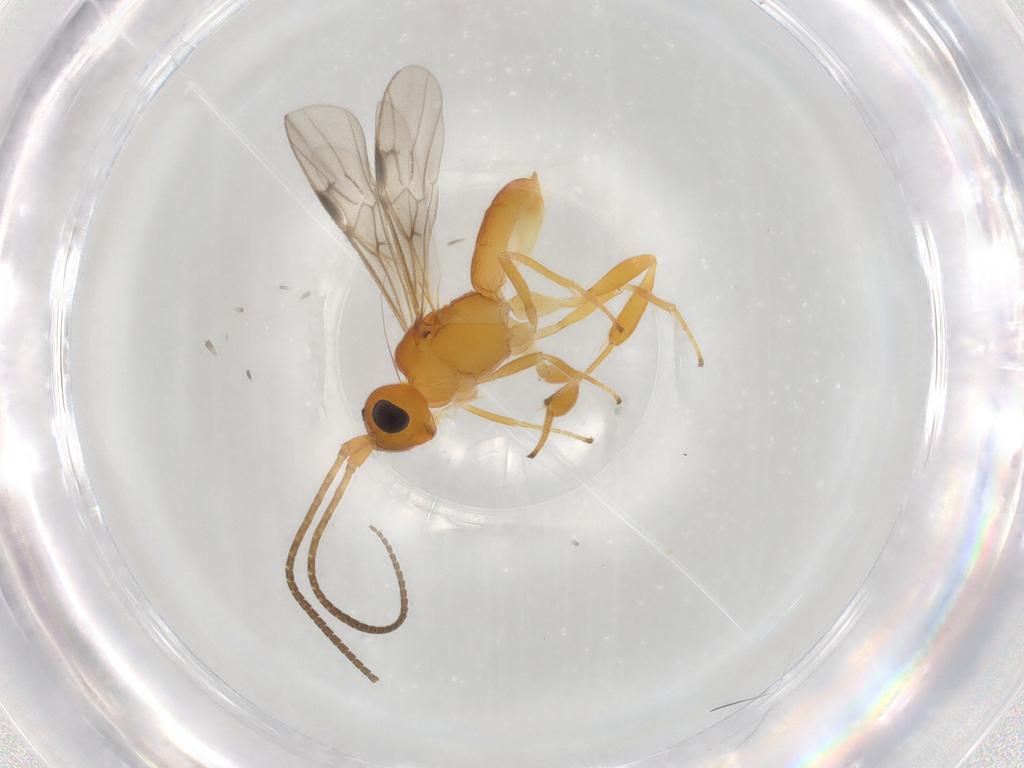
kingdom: Animalia
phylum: Arthropoda
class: Insecta
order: Hymenoptera
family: Braconidae
